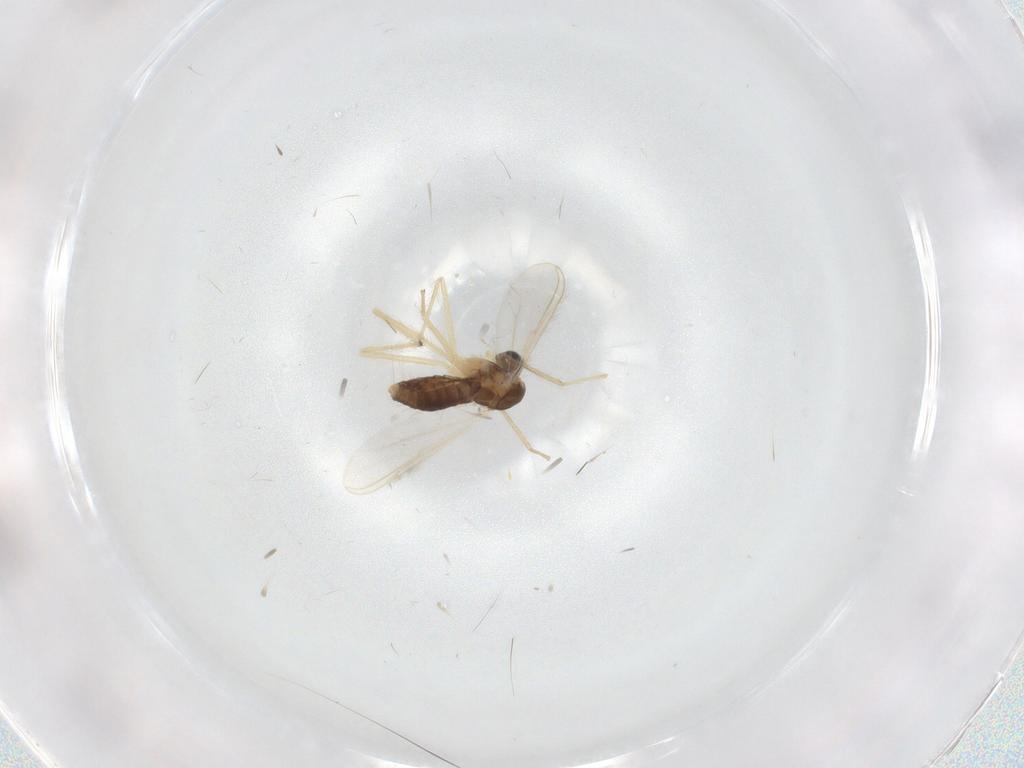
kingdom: Animalia
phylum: Arthropoda
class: Insecta
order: Diptera
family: Chironomidae
